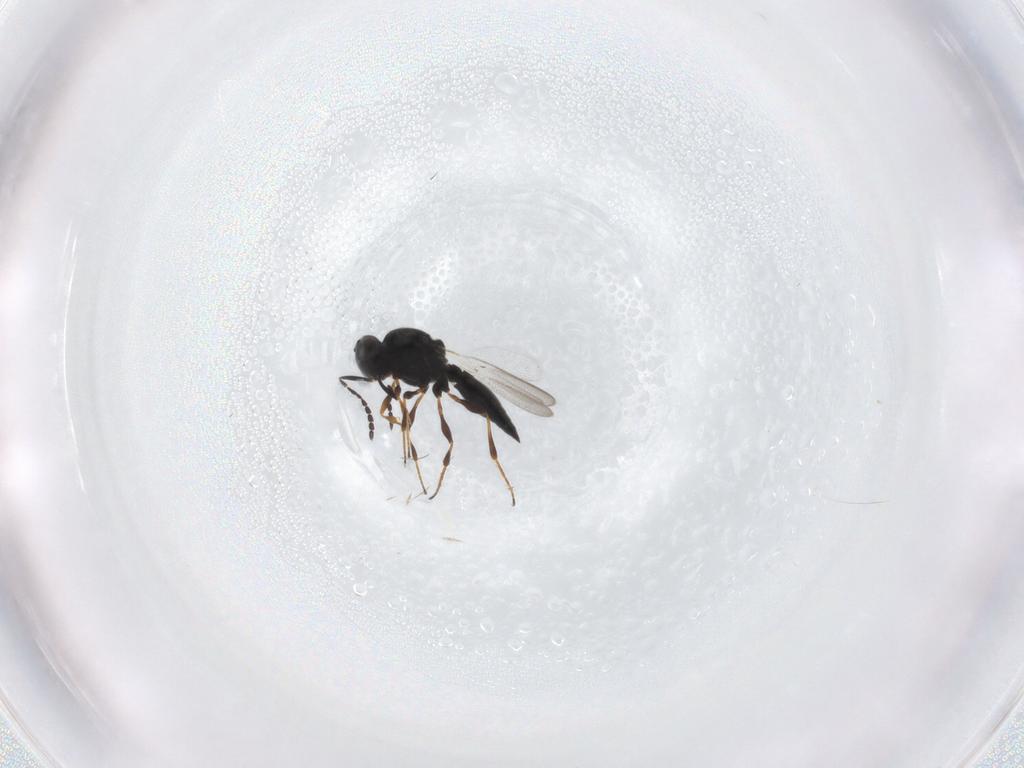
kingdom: Animalia
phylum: Arthropoda
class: Insecta
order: Hymenoptera
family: Platygastridae
